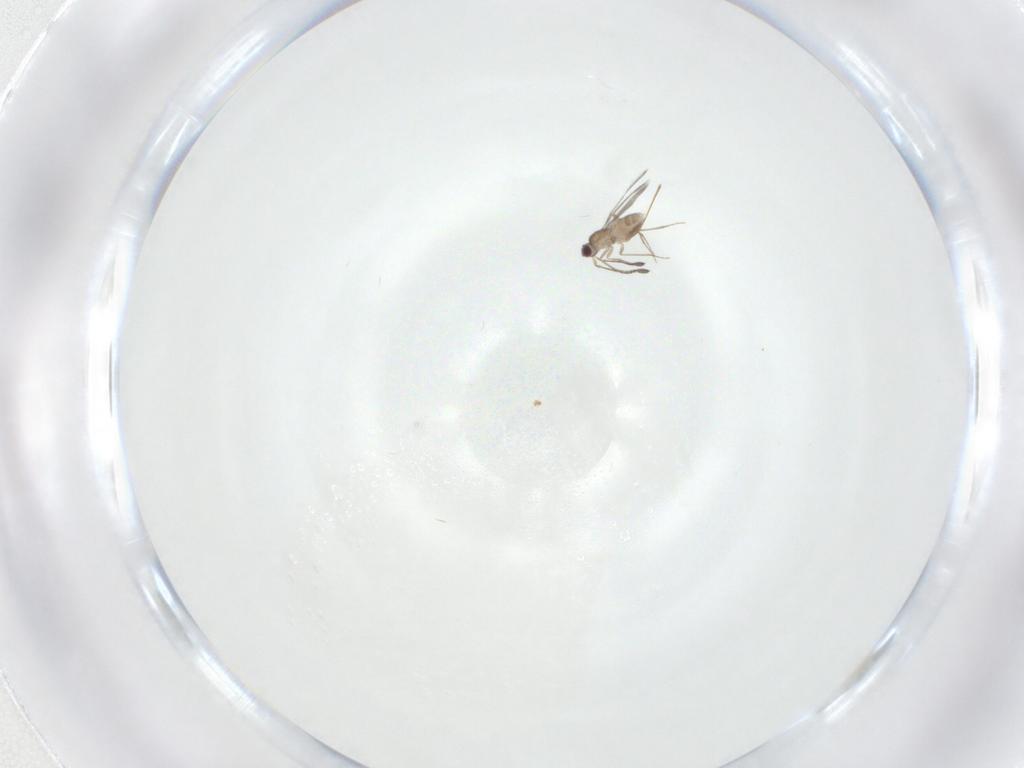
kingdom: Animalia
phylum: Arthropoda
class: Insecta
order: Hymenoptera
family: Mymaridae
